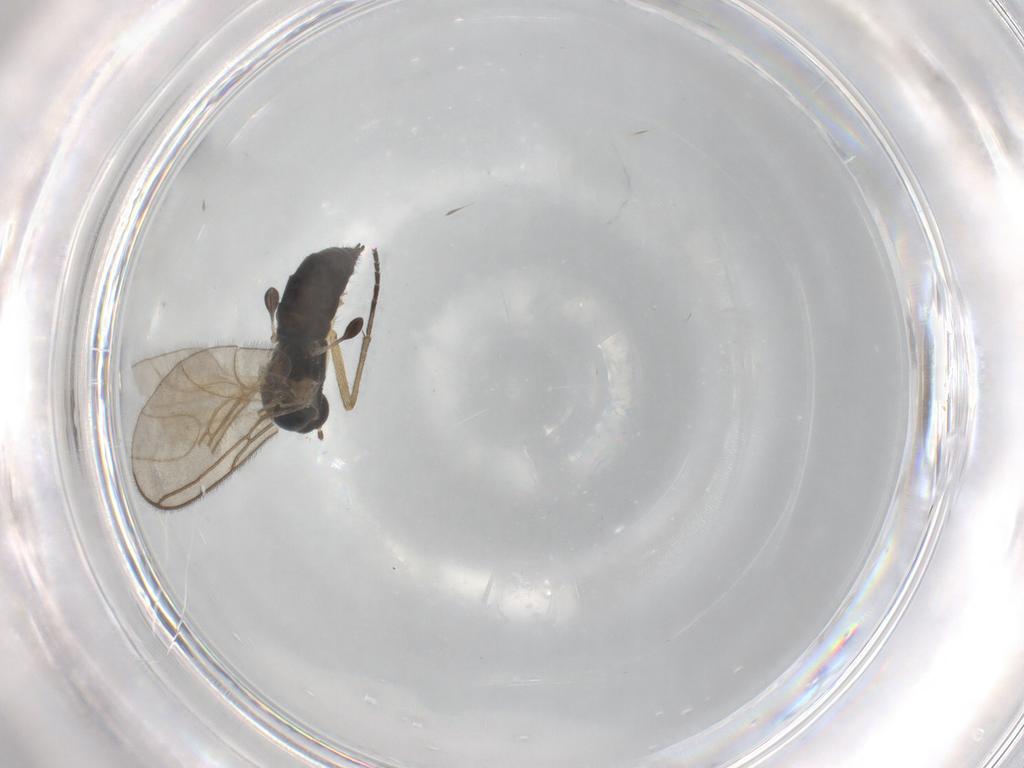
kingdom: Animalia
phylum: Arthropoda
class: Insecta
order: Diptera
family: Sciaridae
